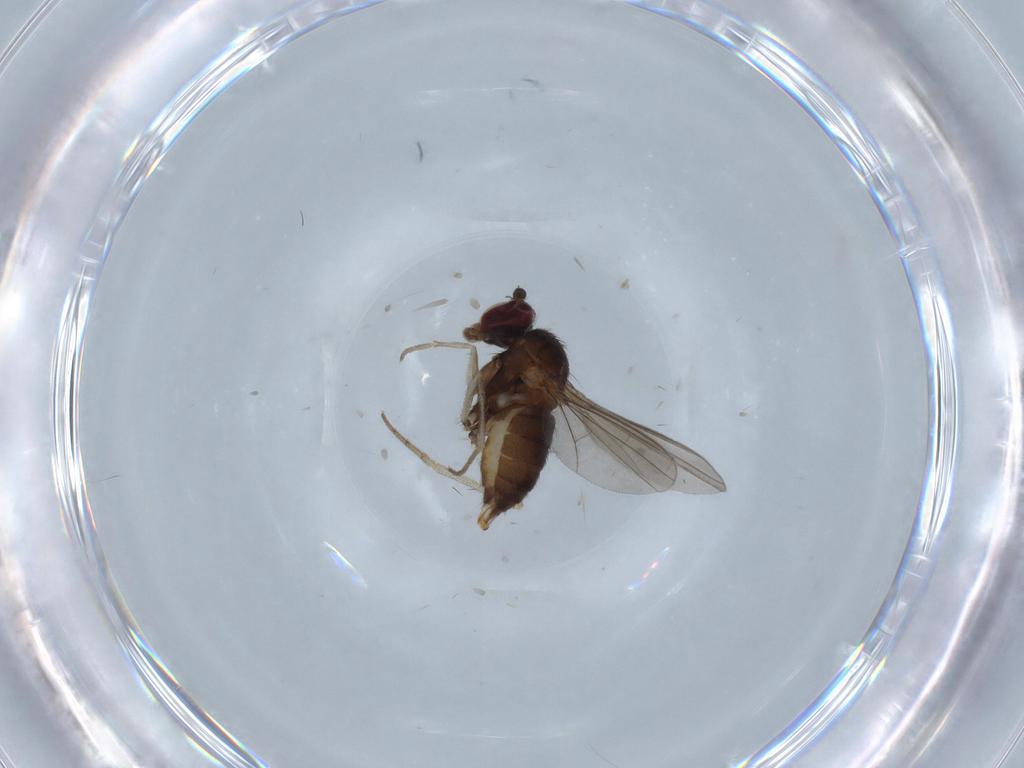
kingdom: Animalia
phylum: Arthropoda
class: Insecta
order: Diptera
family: Dolichopodidae
